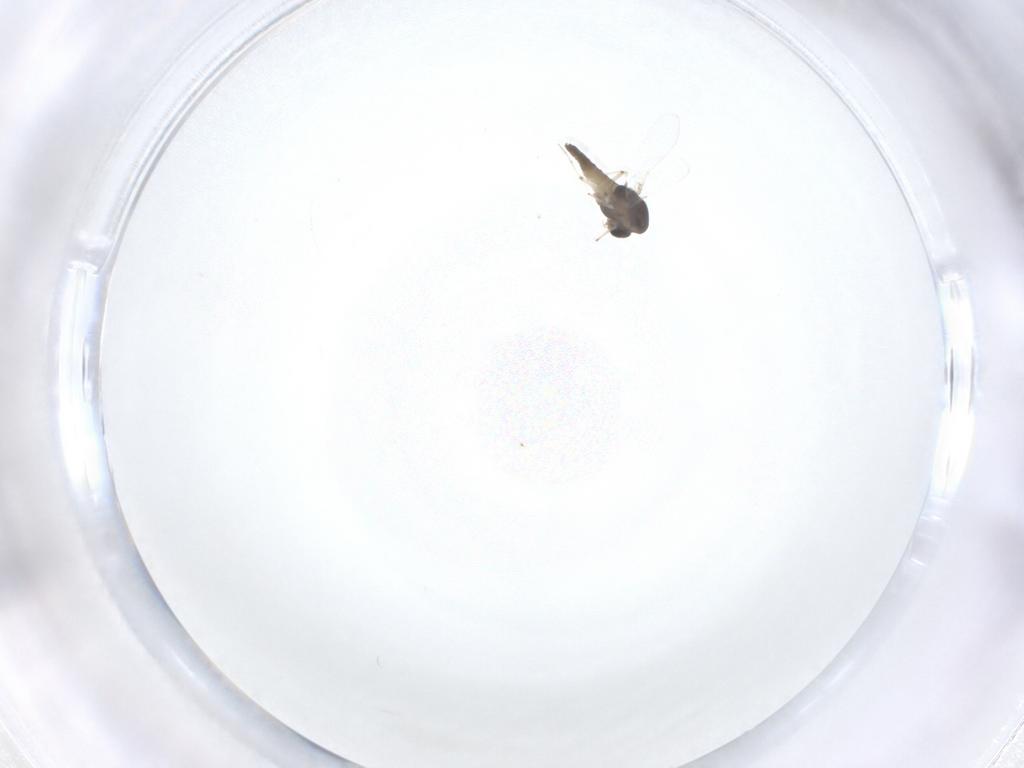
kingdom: Animalia
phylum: Arthropoda
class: Insecta
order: Diptera
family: Chironomidae
